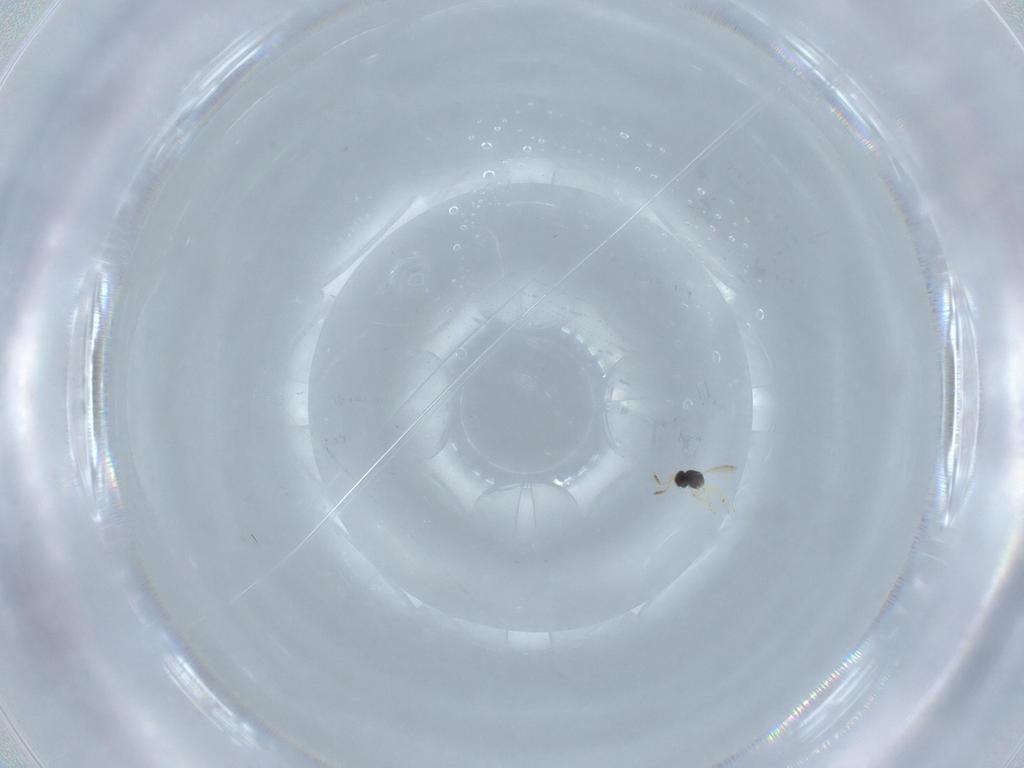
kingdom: Animalia
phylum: Arthropoda
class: Insecta
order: Hymenoptera
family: Scelionidae
